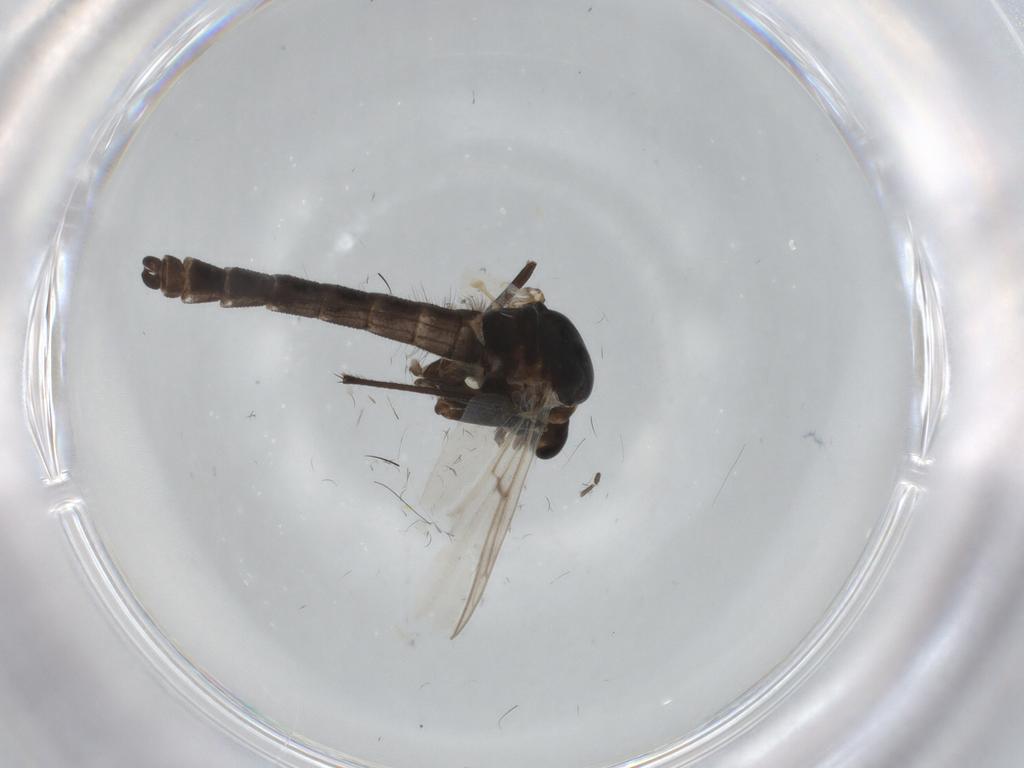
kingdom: Animalia
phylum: Arthropoda
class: Insecta
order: Diptera
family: Chironomidae
